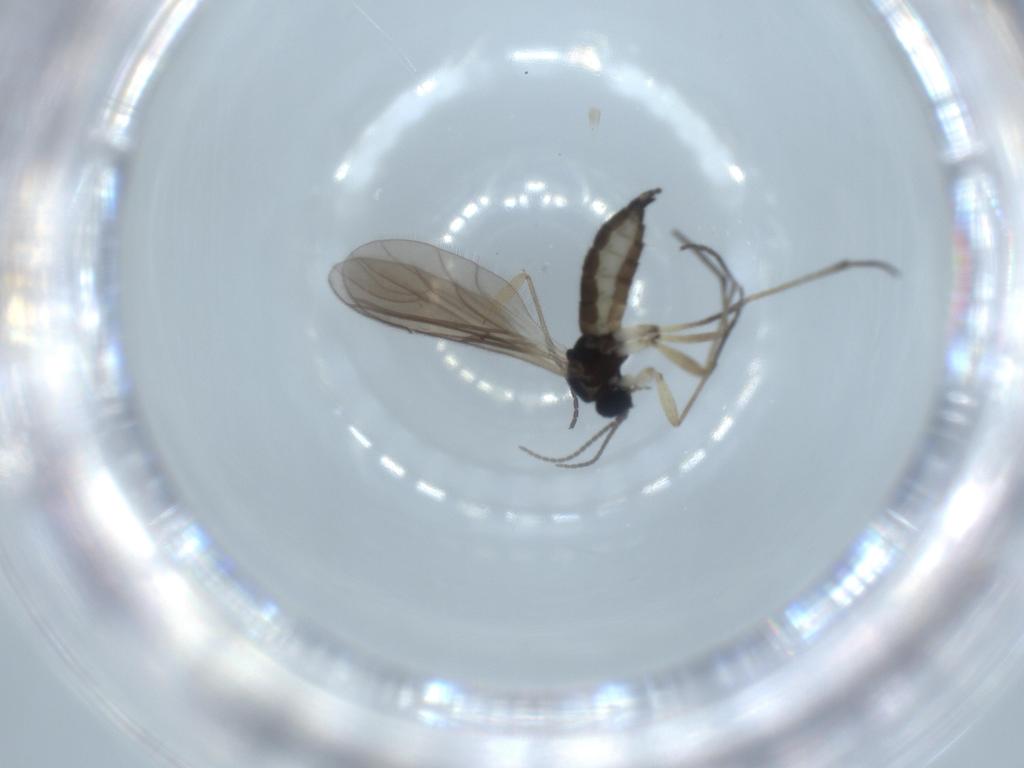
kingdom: Animalia
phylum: Arthropoda
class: Insecta
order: Diptera
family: Sciaridae
